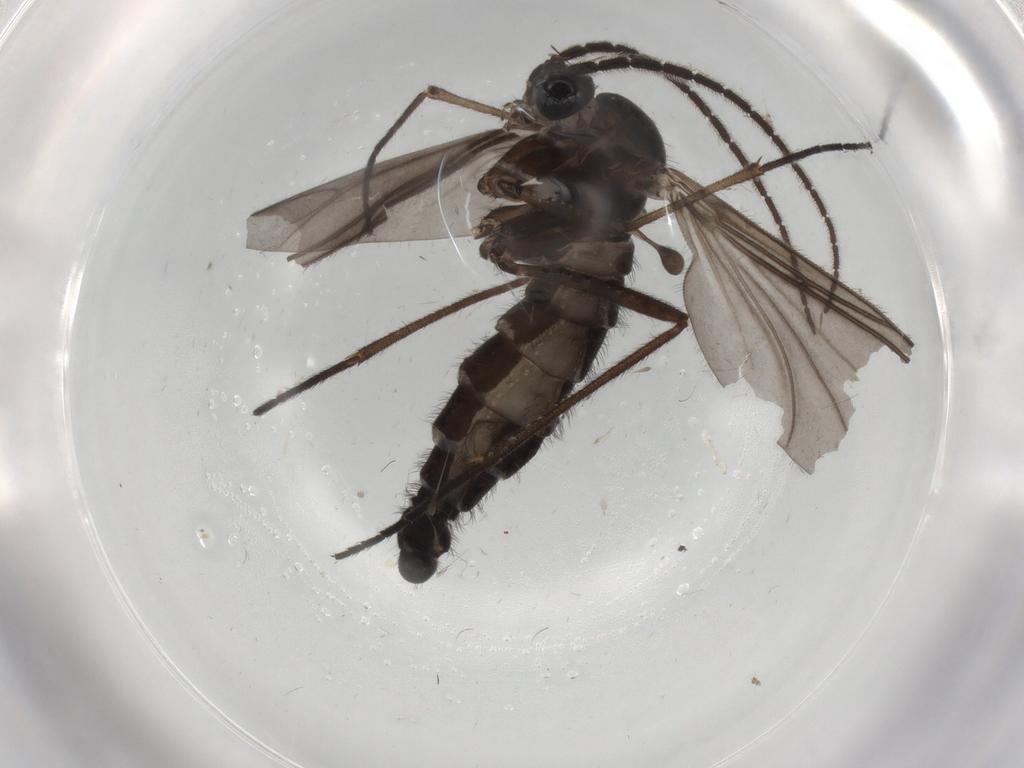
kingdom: Animalia
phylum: Arthropoda
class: Insecta
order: Diptera
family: Sciaridae
